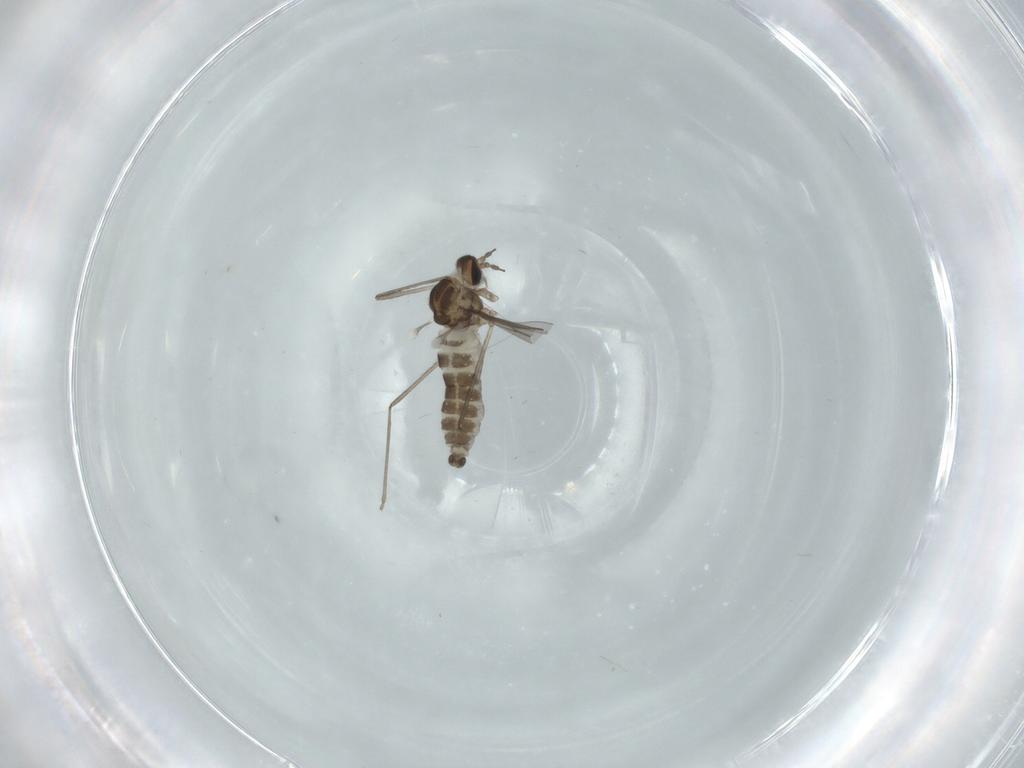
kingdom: Animalia
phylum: Arthropoda
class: Insecta
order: Diptera
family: Cecidomyiidae
